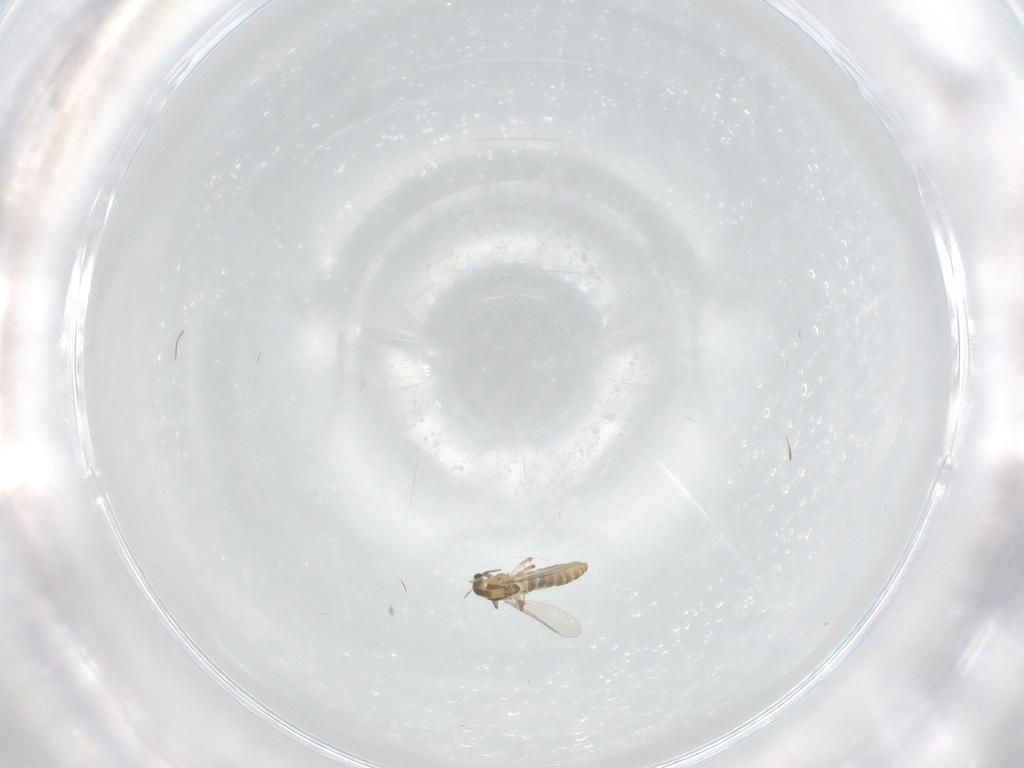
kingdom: Animalia
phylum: Arthropoda
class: Insecta
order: Diptera
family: Chironomidae
